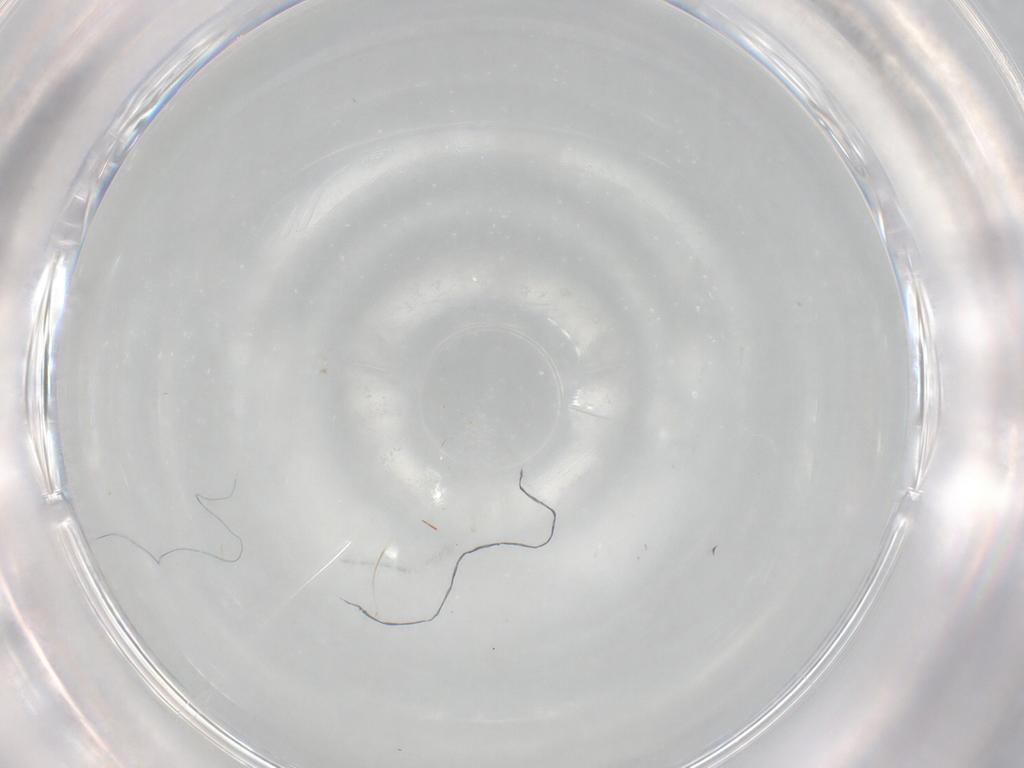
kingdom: Animalia
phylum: Arthropoda
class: Insecta
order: Hymenoptera
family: Eulophidae
